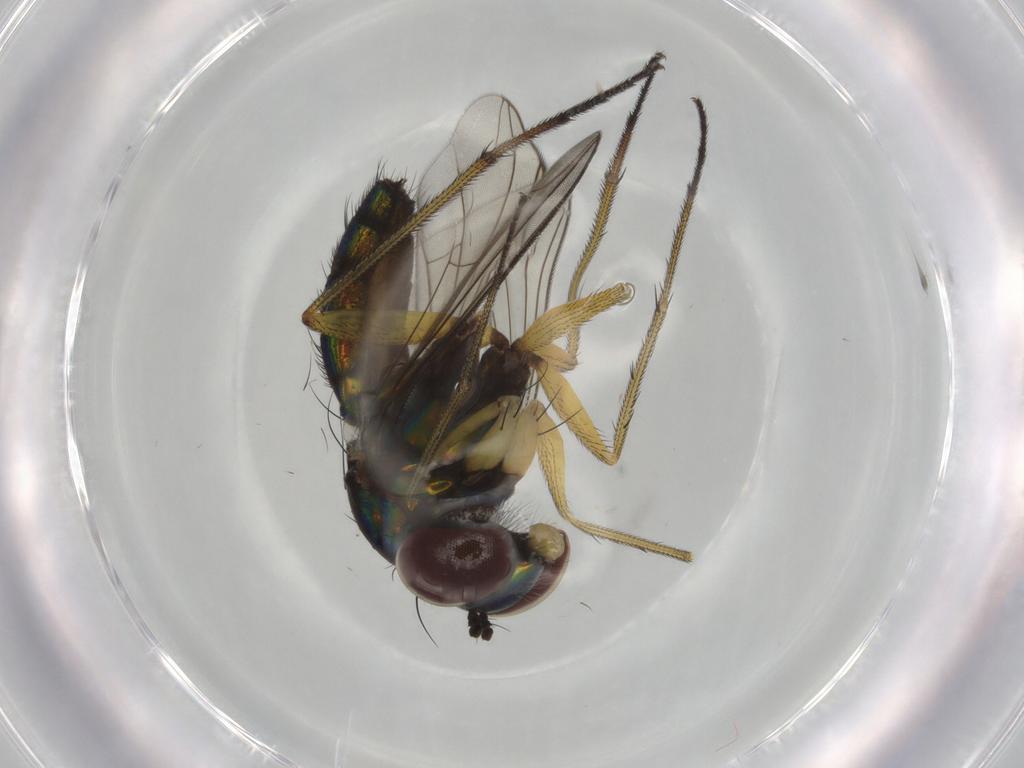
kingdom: Animalia
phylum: Arthropoda
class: Insecta
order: Diptera
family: Dolichopodidae
